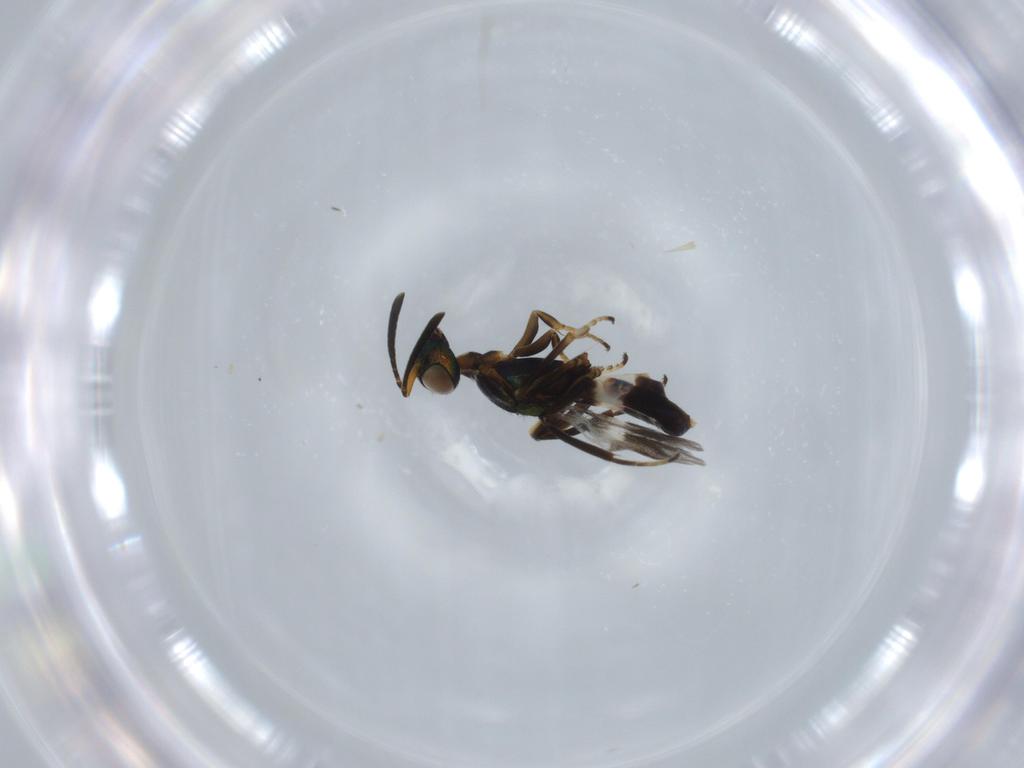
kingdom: Animalia
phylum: Arthropoda
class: Insecta
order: Hymenoptera
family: Eupelmidae
